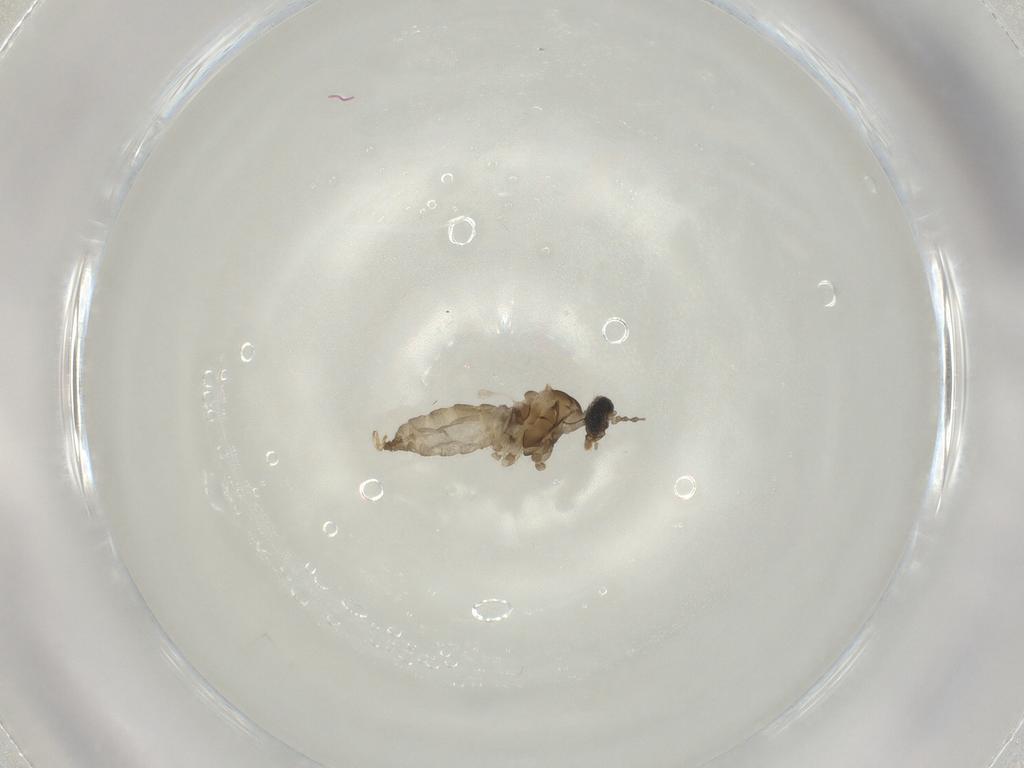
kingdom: Animalia
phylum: Arthropoda
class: Insecta
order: Diptera
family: Cecidomyiidae
